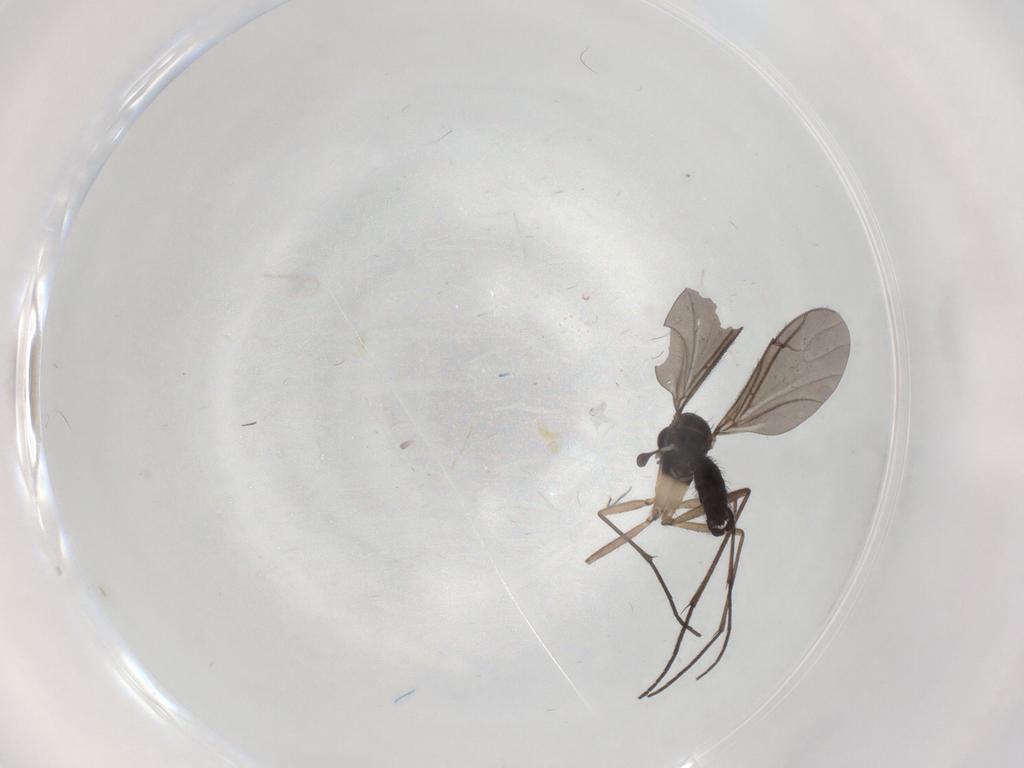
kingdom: Animalia
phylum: Arthropoda
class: Insecta
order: Diptera
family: Sciaridae
